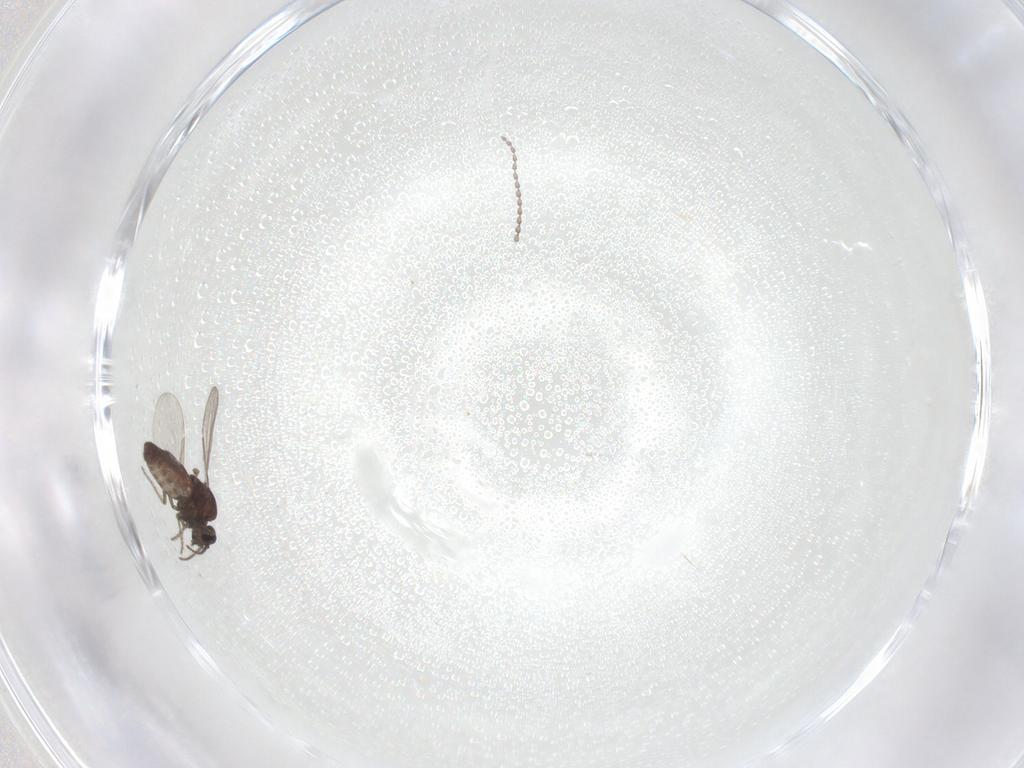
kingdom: Animalia
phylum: Arthropoda
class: Insecta
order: Diptera
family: Ceratopogonidae
